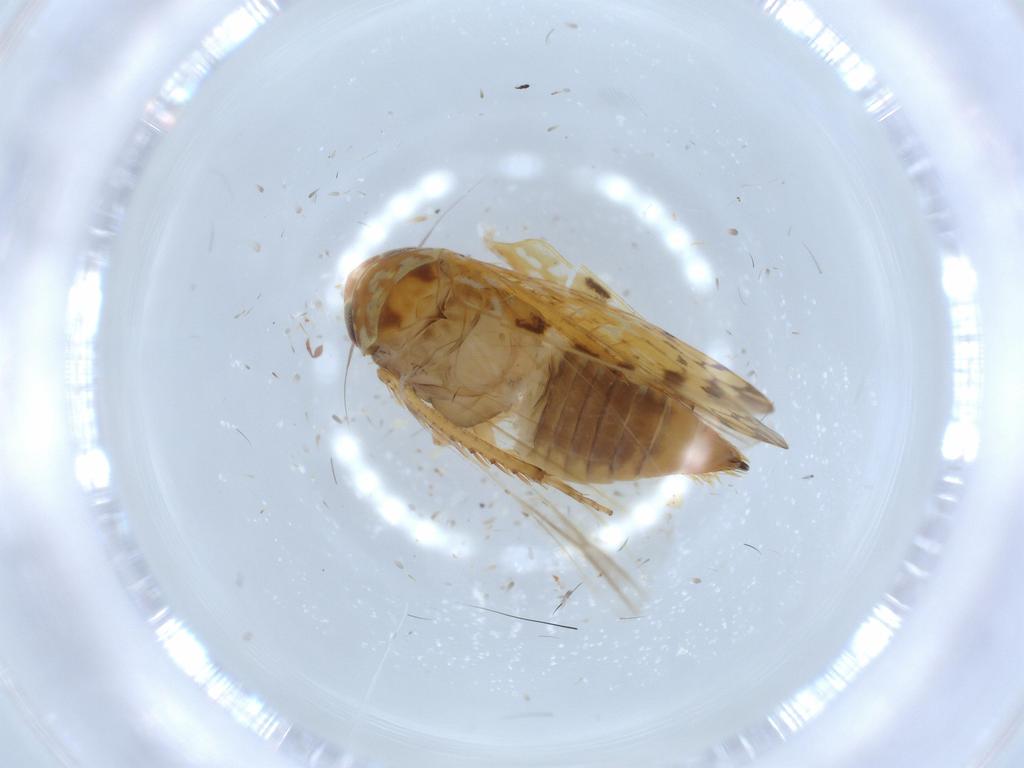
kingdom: Animalia
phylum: Arthropoda
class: Insecta
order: Hemiptera
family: Cicadellidae
